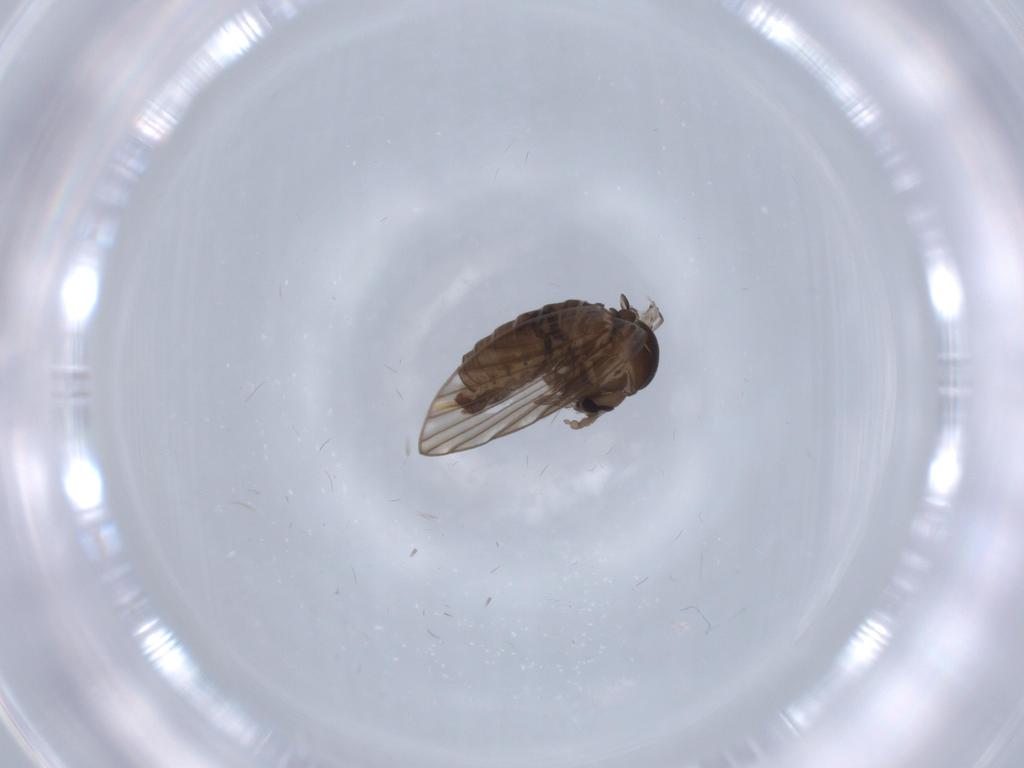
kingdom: Animalia
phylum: Arthropoda
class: Insecta
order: Diptera
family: Psychodidae
